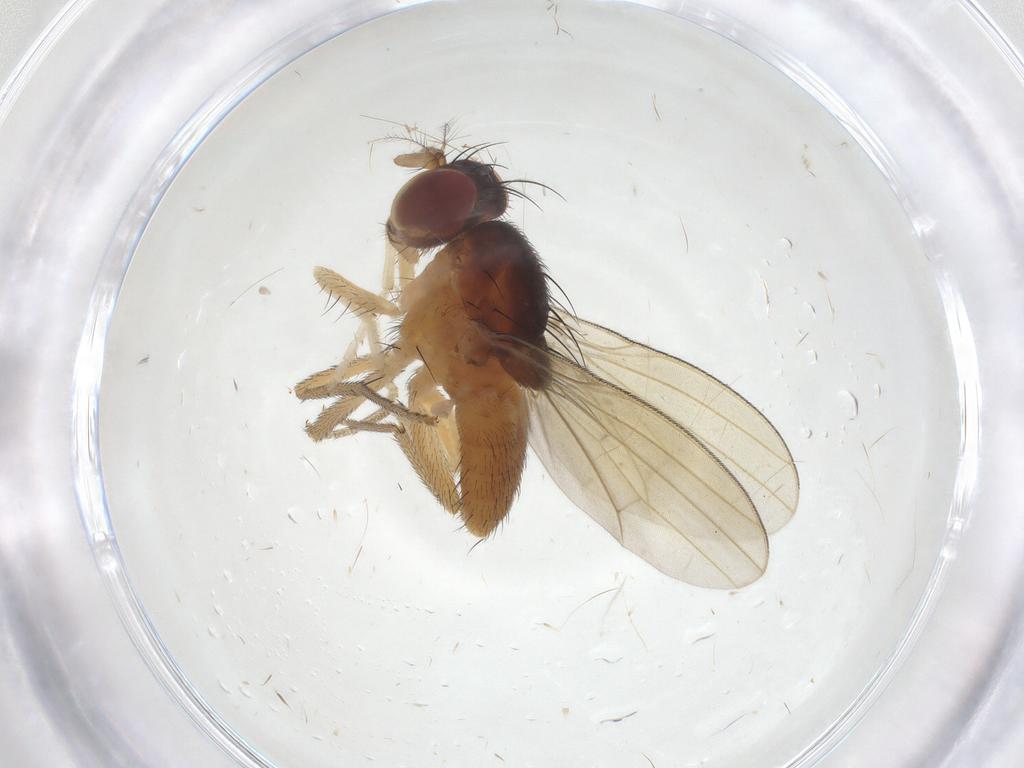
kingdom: Animalia
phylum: Arthropoda
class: Insecta
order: Diptera
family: Lauxaniidae
